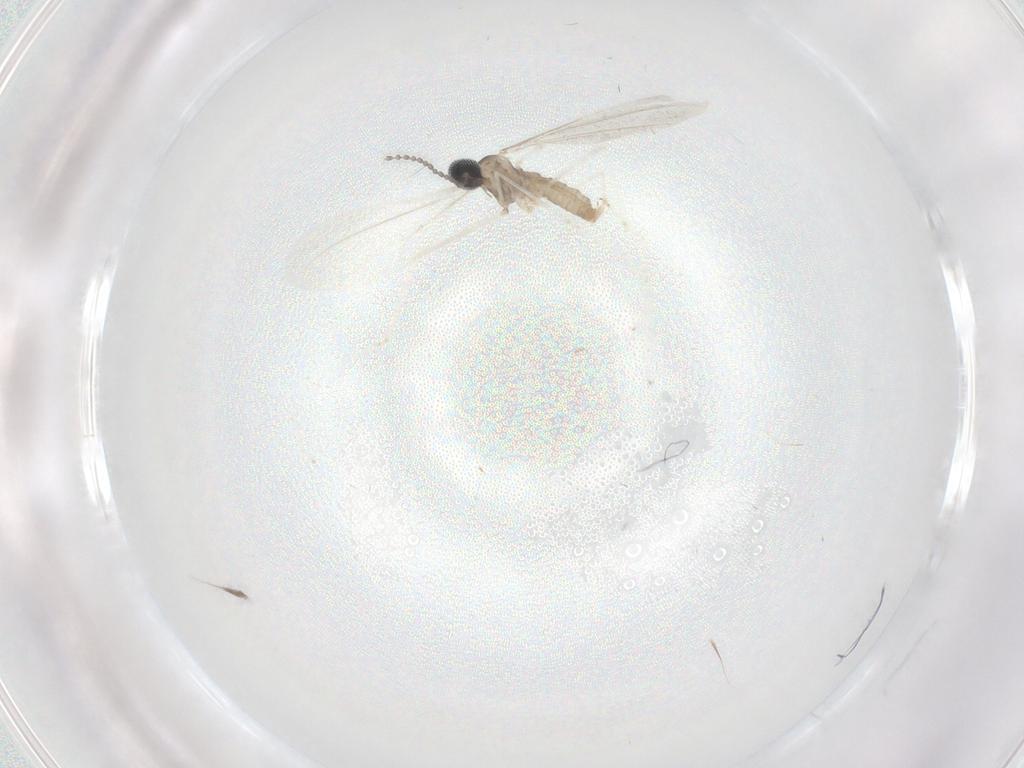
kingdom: Animalia
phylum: Arthropoda
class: Insecta
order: Diptera
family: Cecidomyiidae
